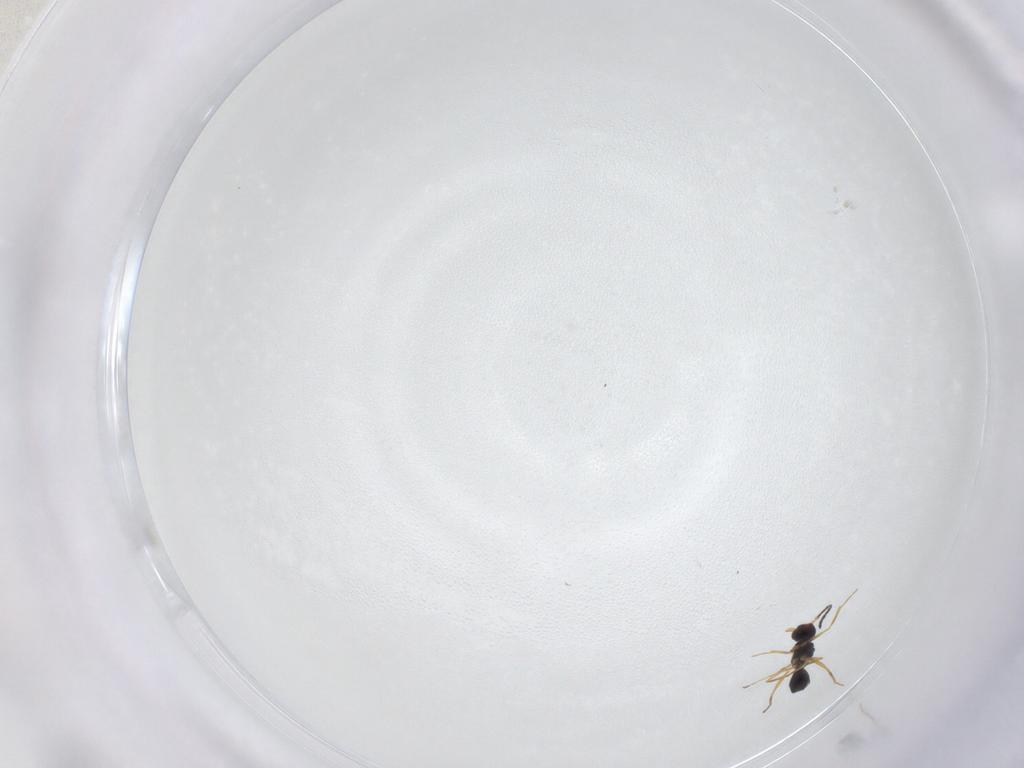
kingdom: Animalia
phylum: Arthropoda
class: Insecta
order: Hymenoptera
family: Mymaridae
